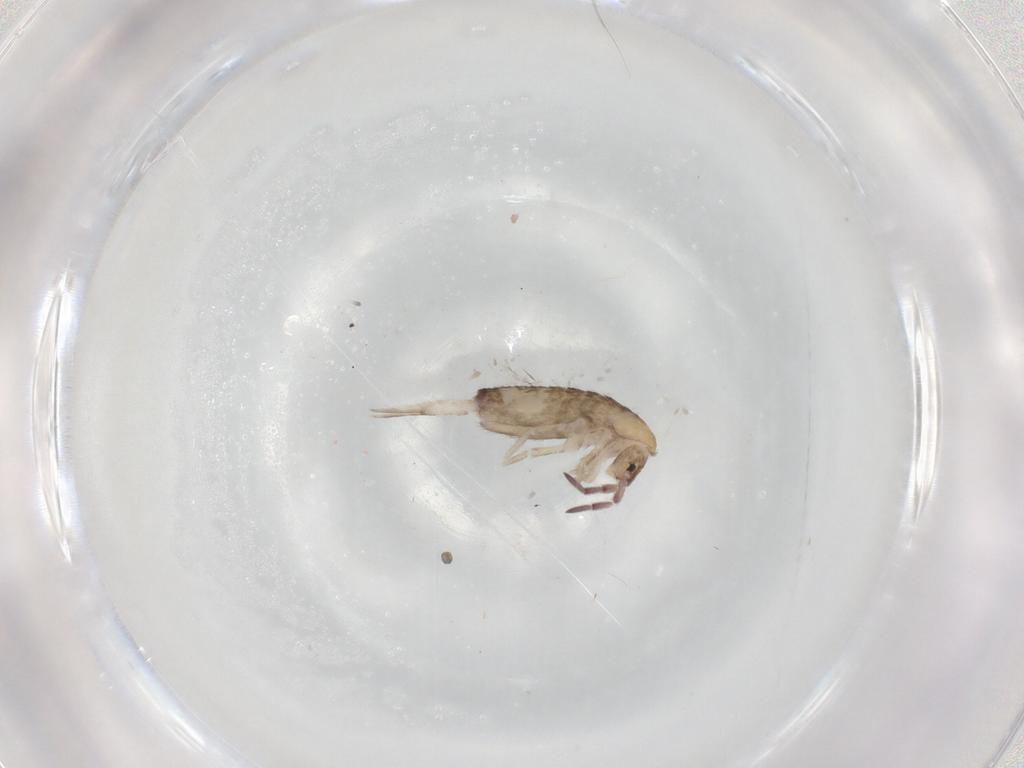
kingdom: Animalia
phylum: Arthropoda
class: Collembola
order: Entomobryomorpha
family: Entomobryidae
